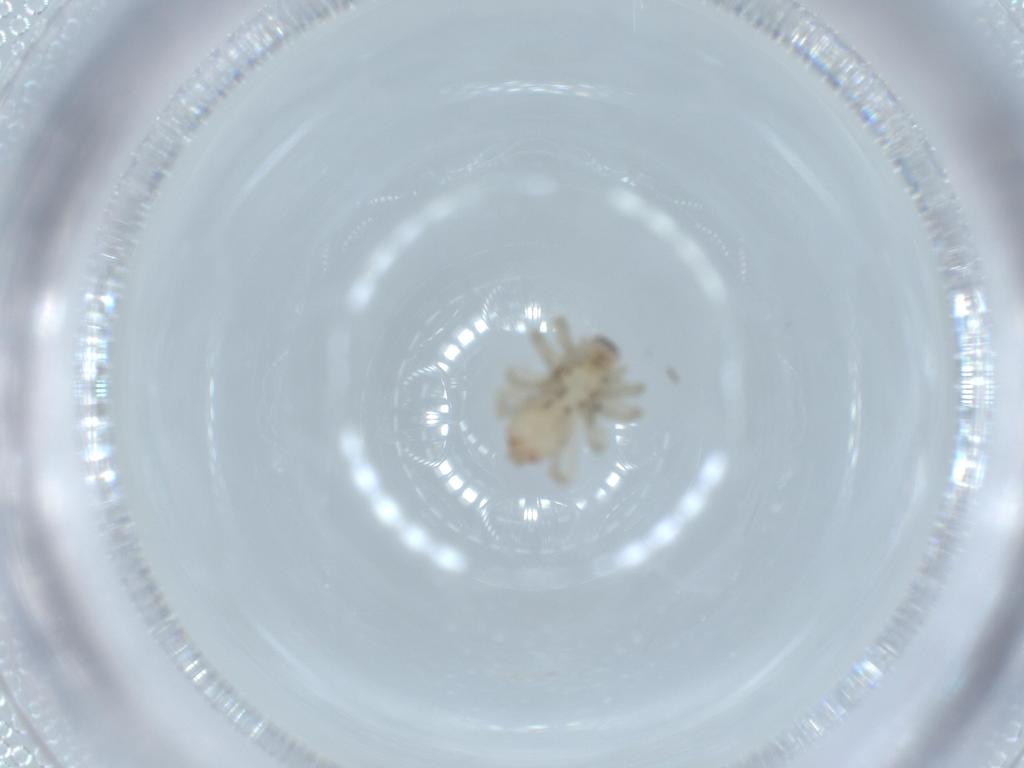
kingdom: Animalia
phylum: Arthropoda
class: Arachnida
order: Araneae
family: Clubionidae
